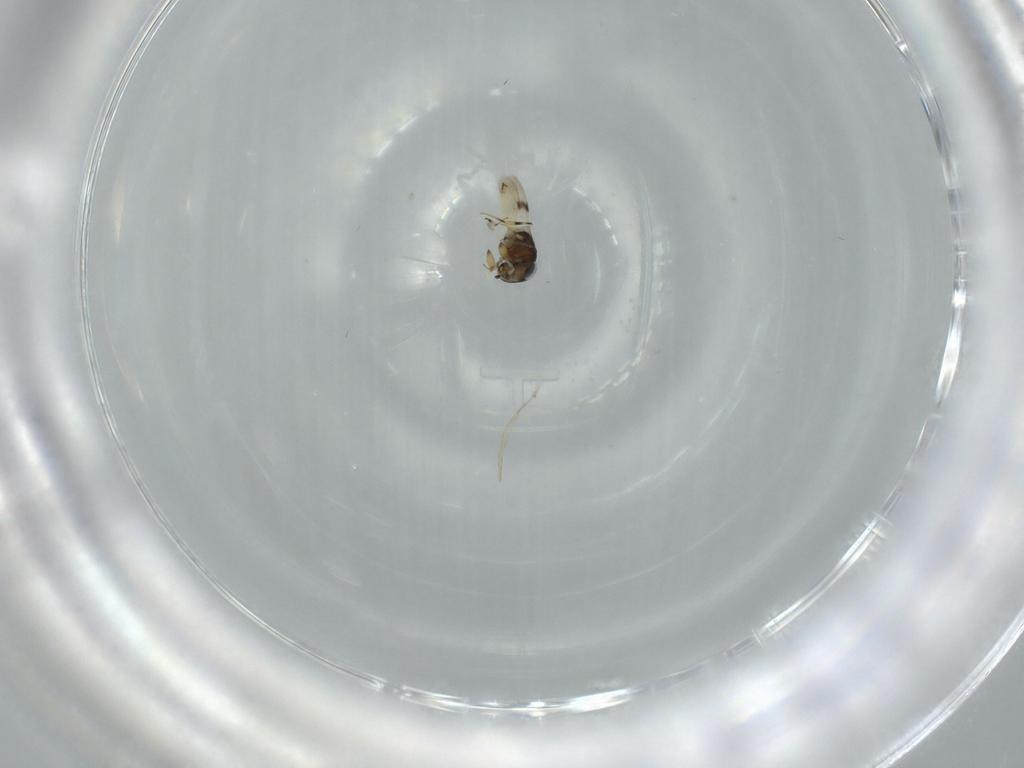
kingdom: Animalia
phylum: Arthropoda
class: Insecta
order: Hymenoptera
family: Scelionidae
